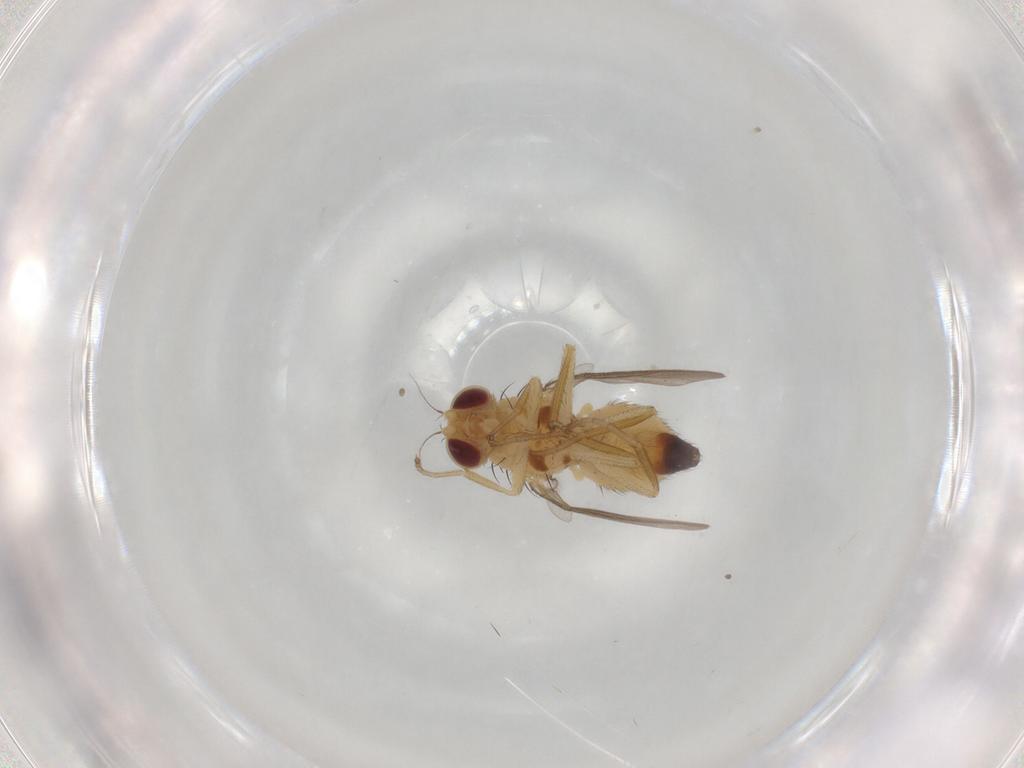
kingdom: Animalia
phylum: Arthropoda
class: Insecta
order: Diptera
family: Agromyzidae
